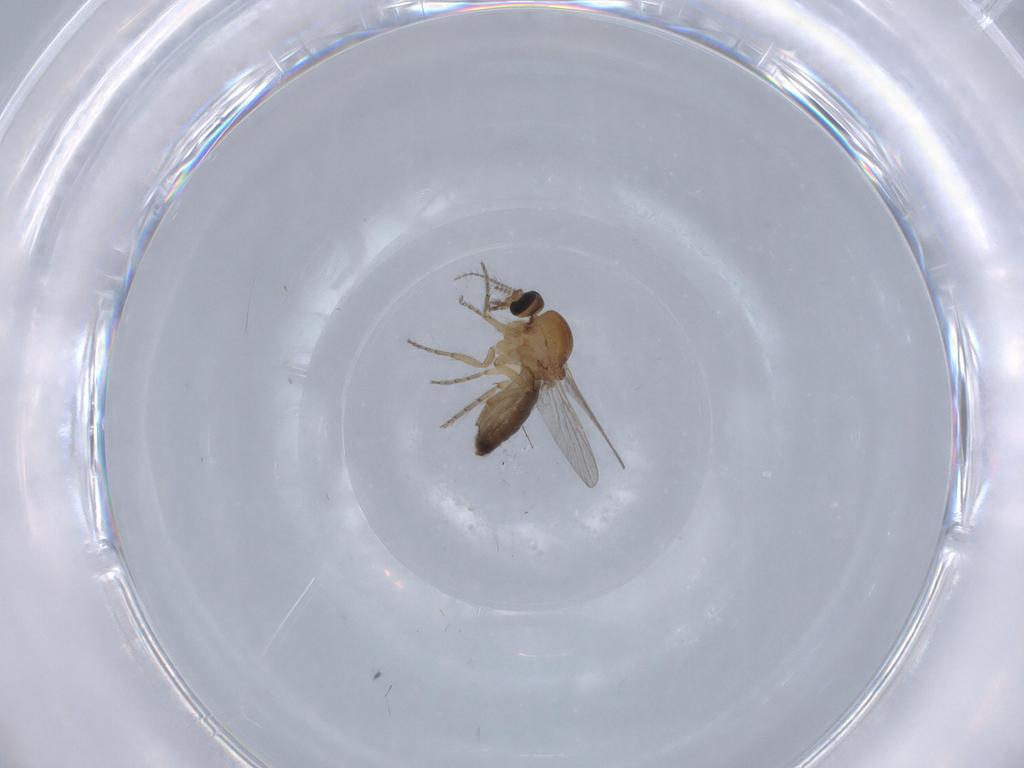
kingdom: Animalia
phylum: Arthropoda
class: Insecta
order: Diptera
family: Ceratopogonidae
